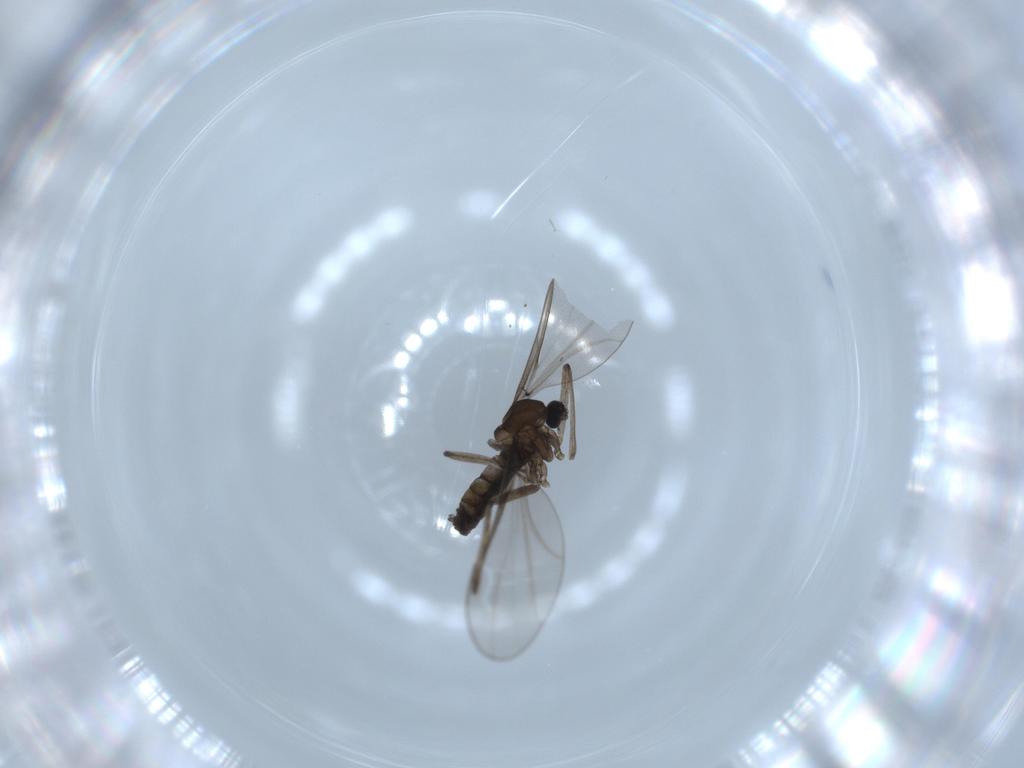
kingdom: Animalia
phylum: Arthropoda
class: Insecta
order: Diptera
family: Cecidomyiidae
